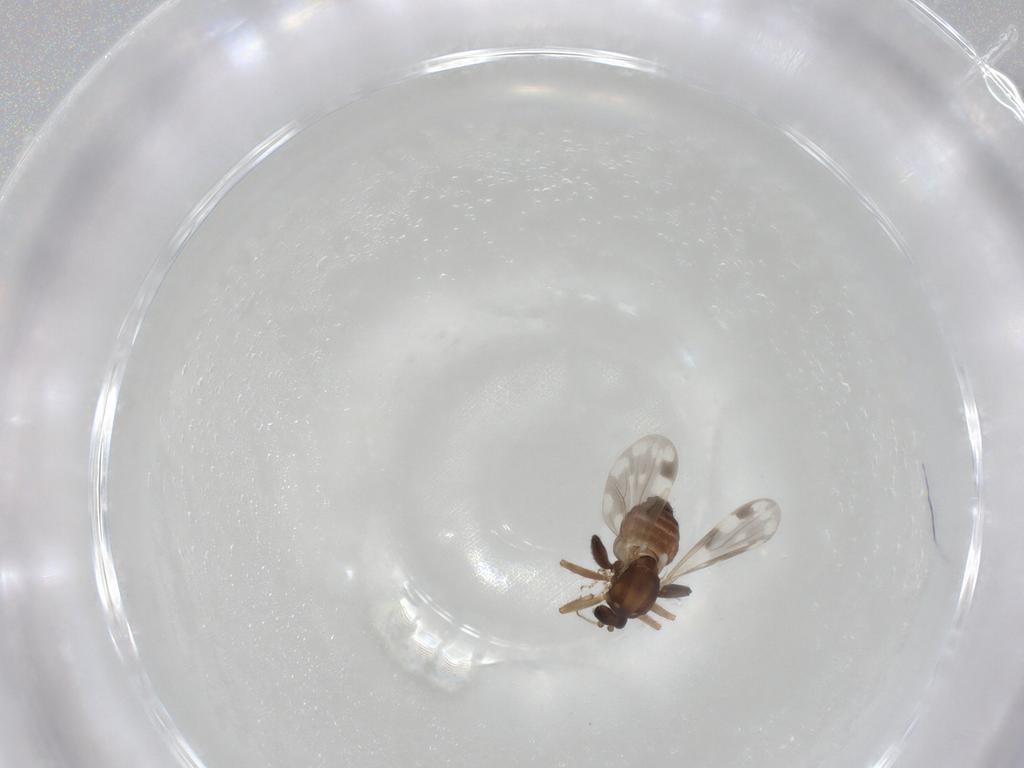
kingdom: Animalia
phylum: Arthropoda
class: Insecta
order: Diptera
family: Ceratopogonidae
